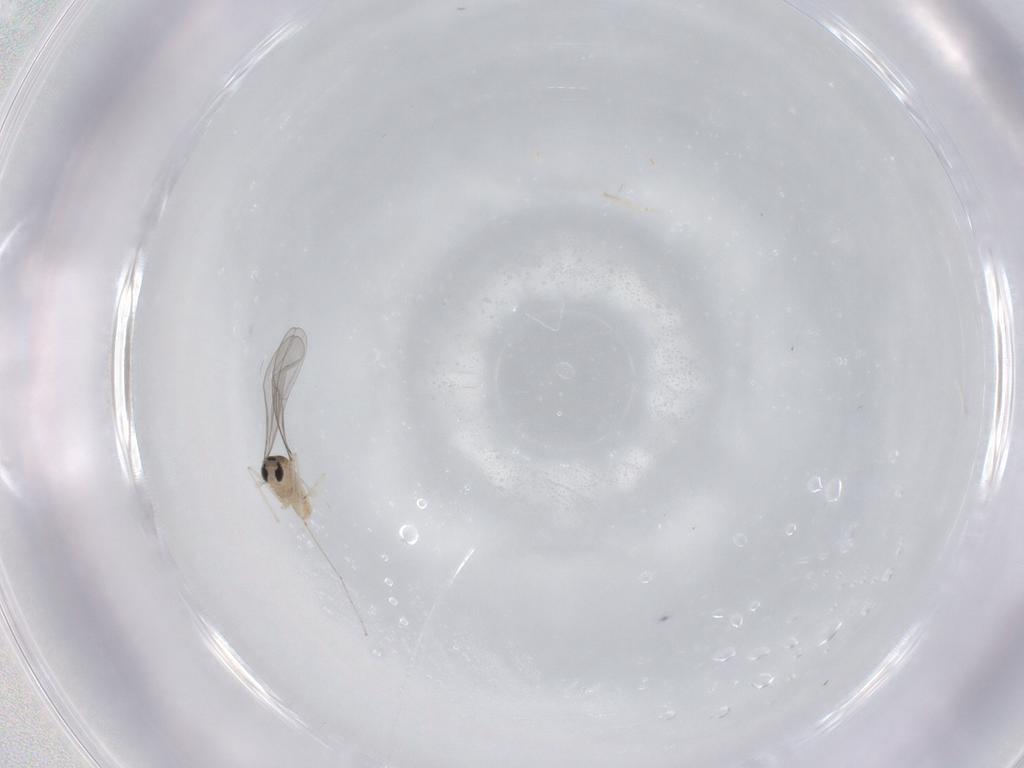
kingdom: Animalia
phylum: Arthropoda
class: Insecta
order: Diptera
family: Cecidomyiidae
